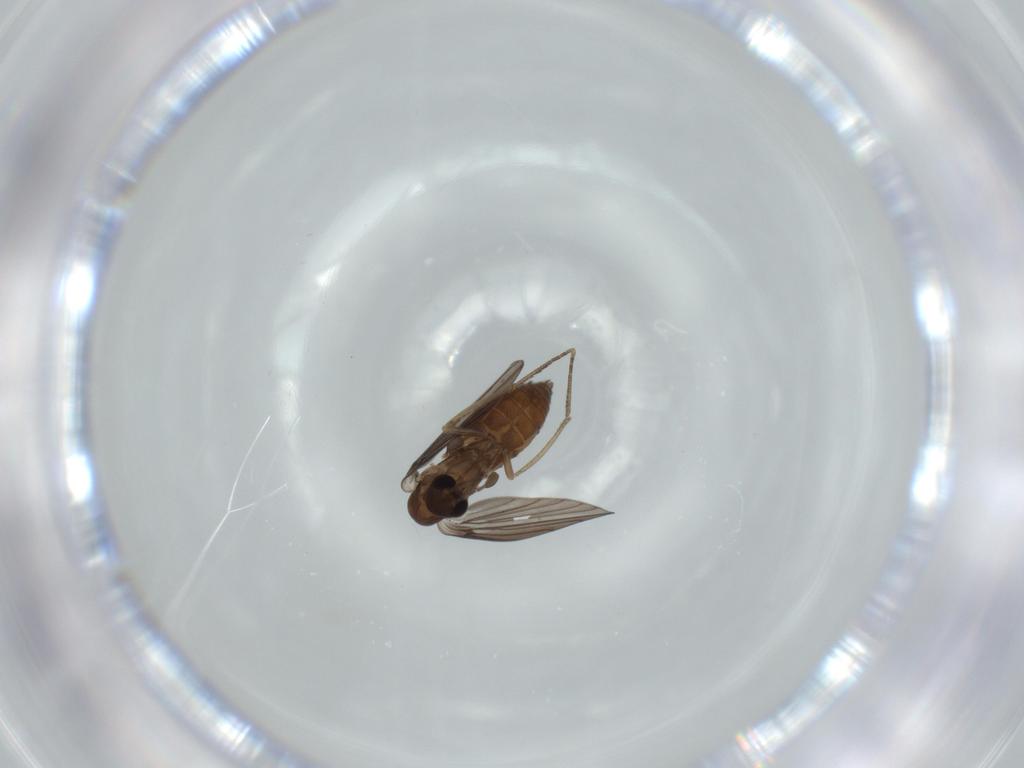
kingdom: Animalia
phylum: Arthropoda
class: Insecta
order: Diptera
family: Psychodidae
